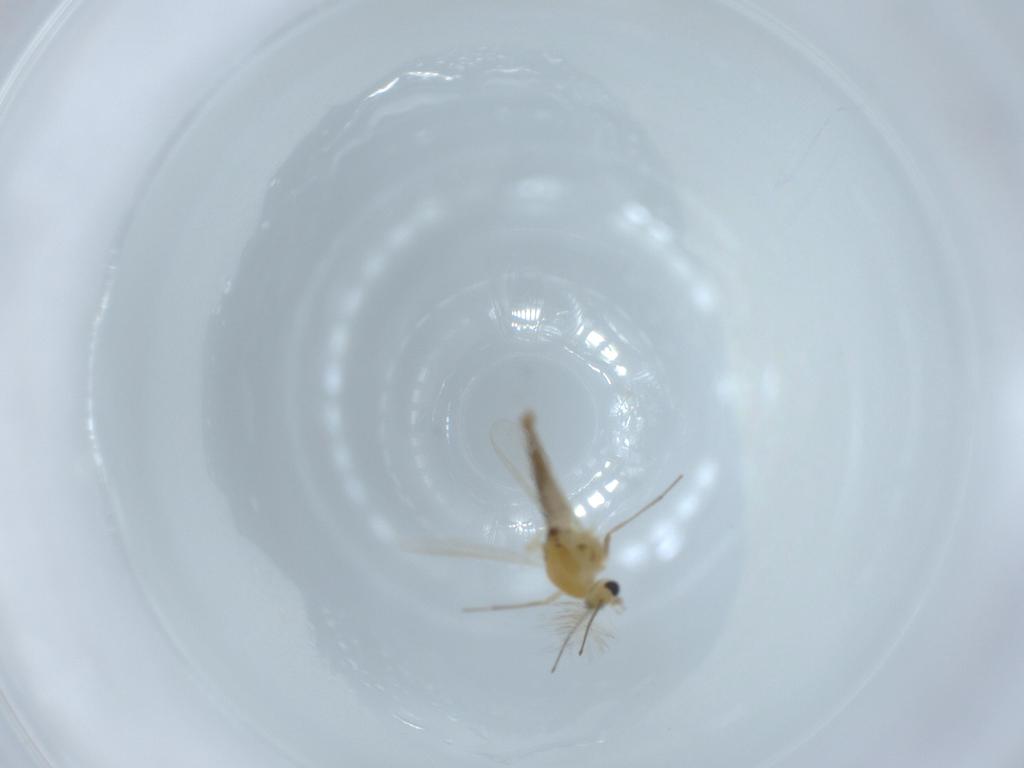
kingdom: Animalia
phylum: Arthropoda
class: Insecta
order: Diptera
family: Chironomidae
